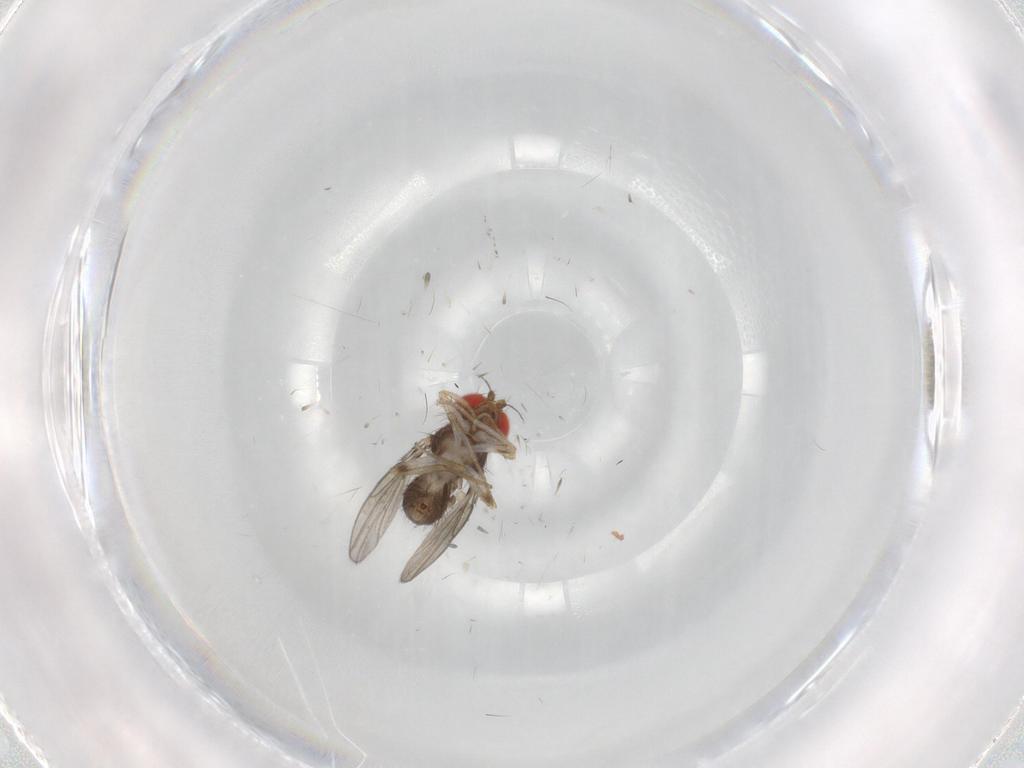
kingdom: Animalia
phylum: Arthropoda
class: Insecta
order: Diptera
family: Drosophilidae
